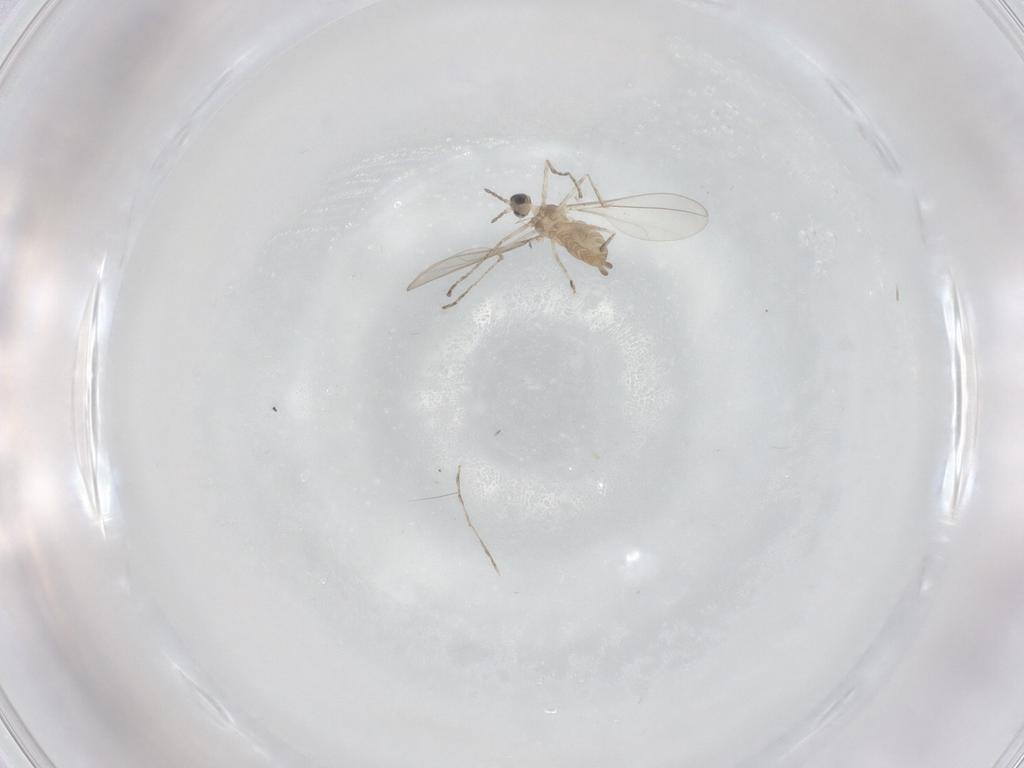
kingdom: Animalia
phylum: Arthropoda
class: Insecta
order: Diptera
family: Cecidomyiidae
